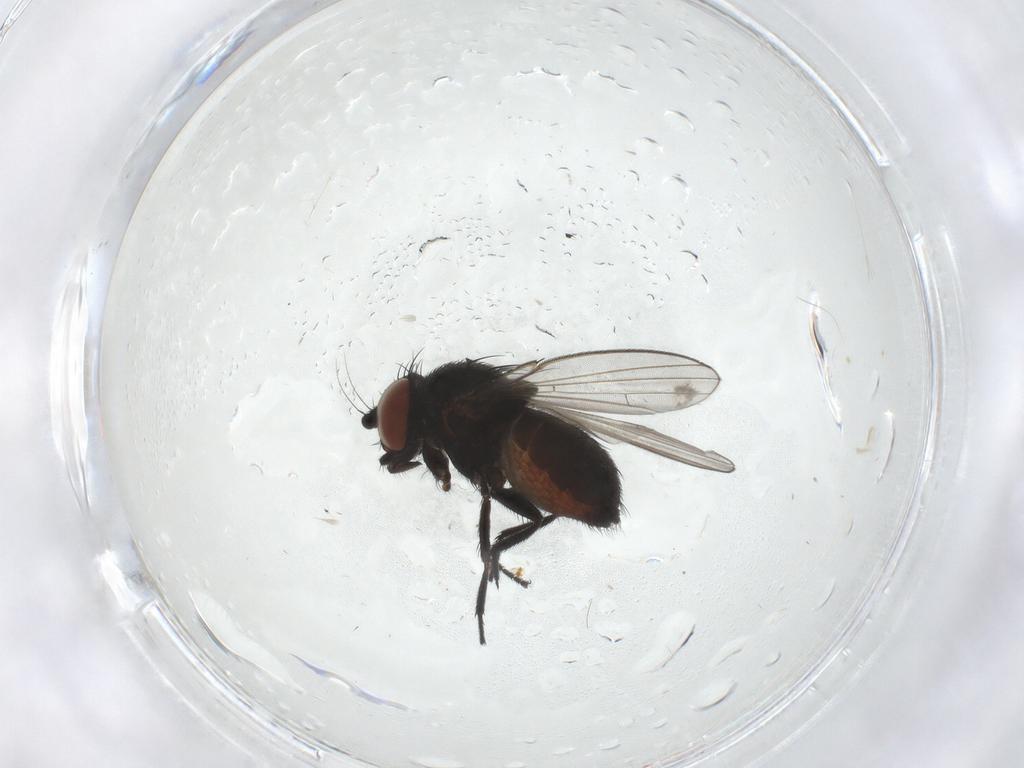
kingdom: Animalia
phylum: Arthropoda
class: Insecta
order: Diptera
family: Milichiidae
